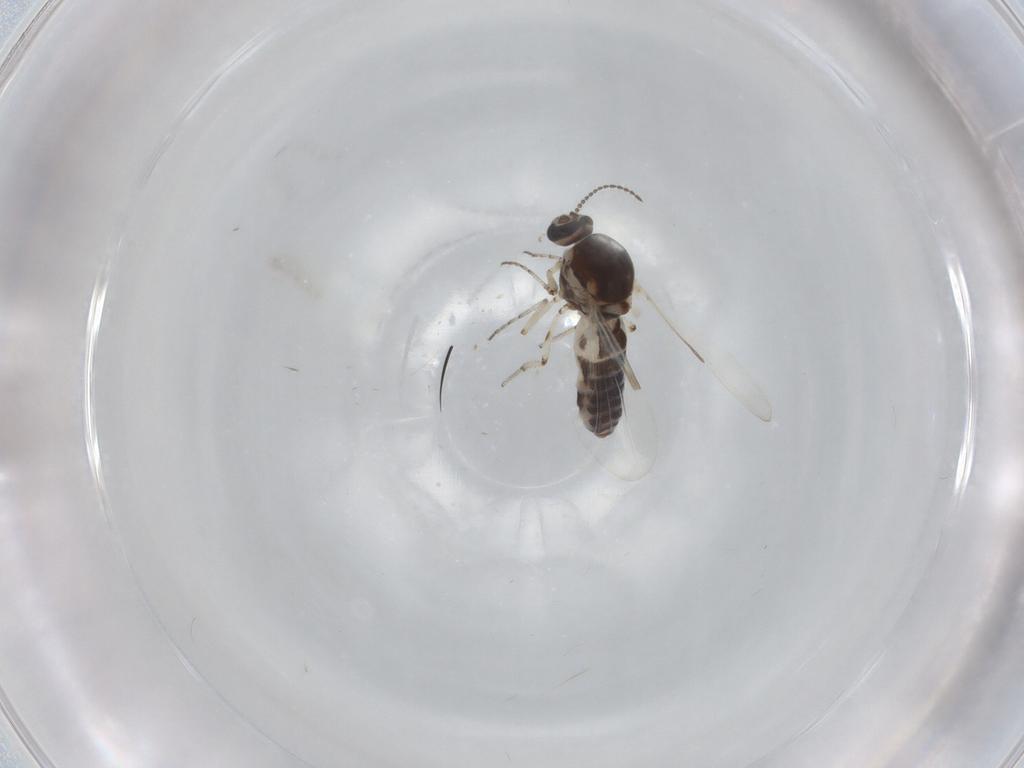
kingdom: Animalia
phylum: Arthropoda
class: Insecta
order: Diptera
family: Ceratopogonidae
